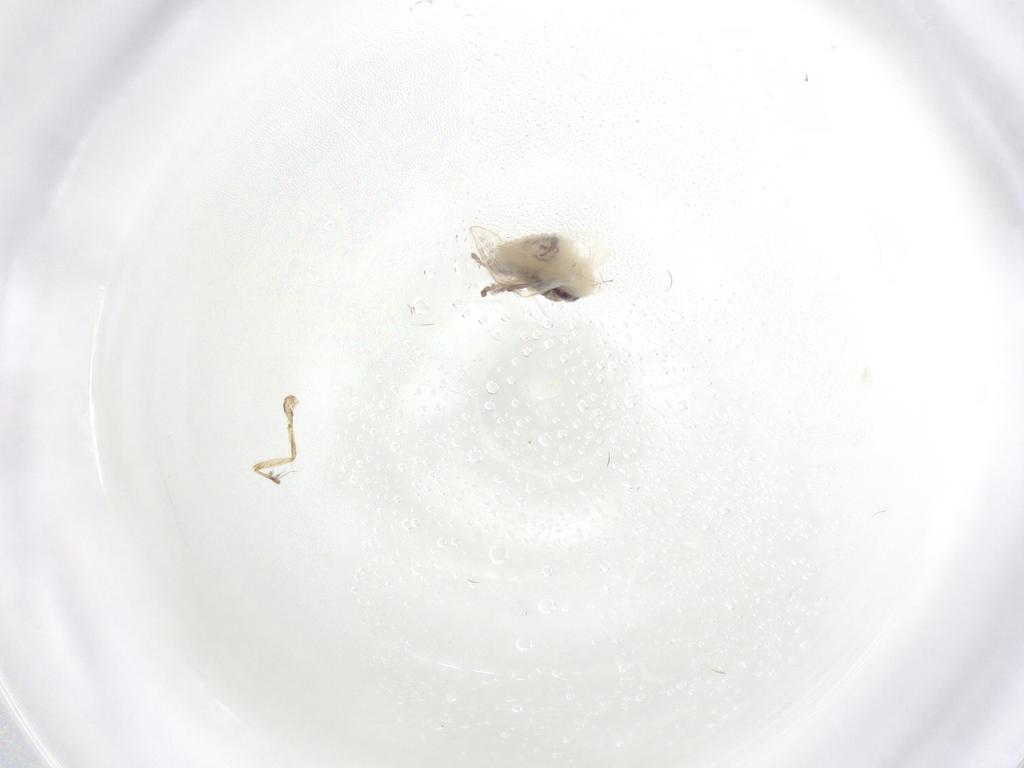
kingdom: Animalia
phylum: Arthropoda
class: Insecta
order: Diptera
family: Ceratopogonidae
